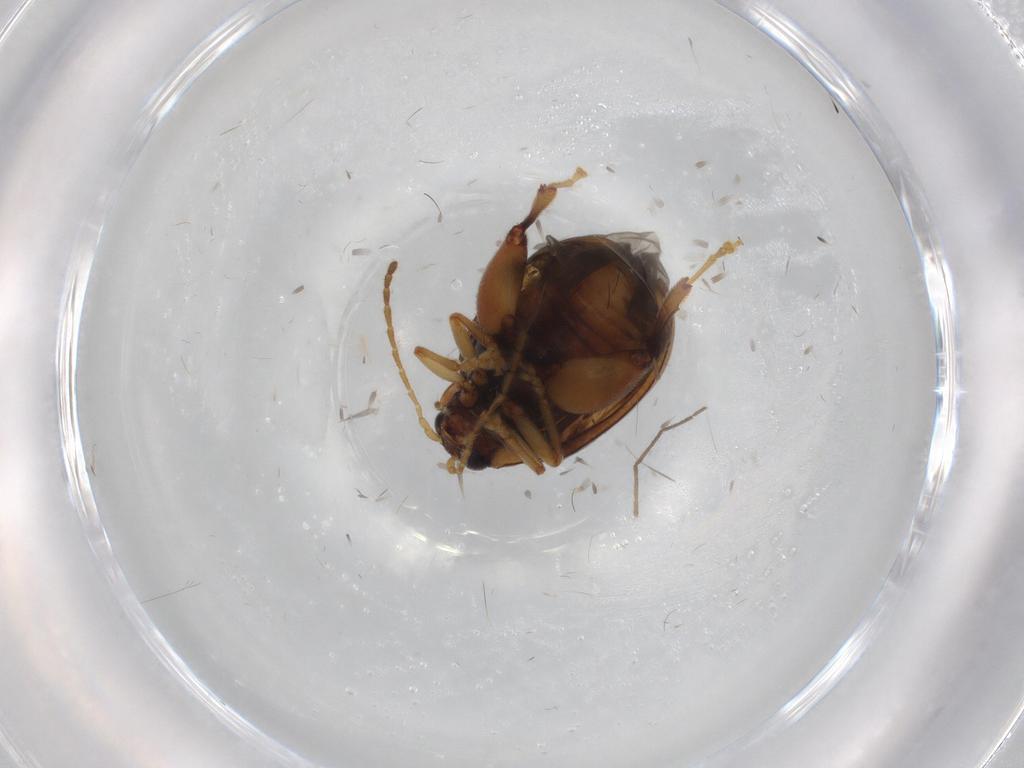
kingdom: Animalia
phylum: Arthropoda
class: Insecta
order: Coleoptera
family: Chrysomelidae
